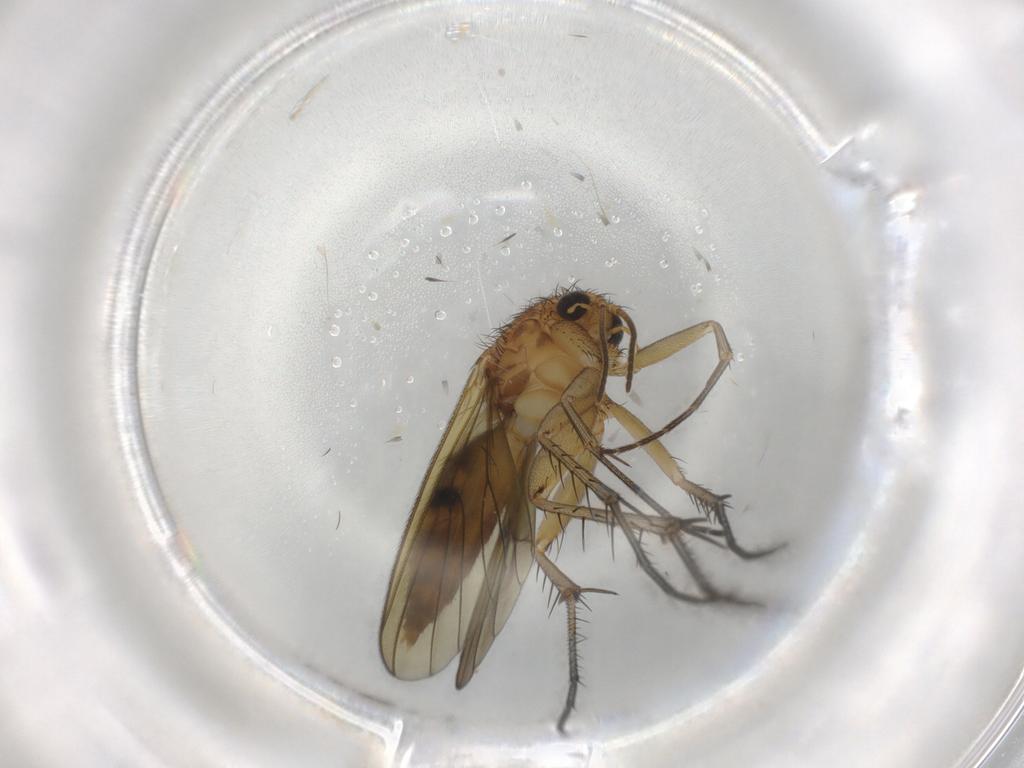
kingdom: Animalia
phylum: Arthropoda
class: Insecta
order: Diptera
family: Mycetophilidae
